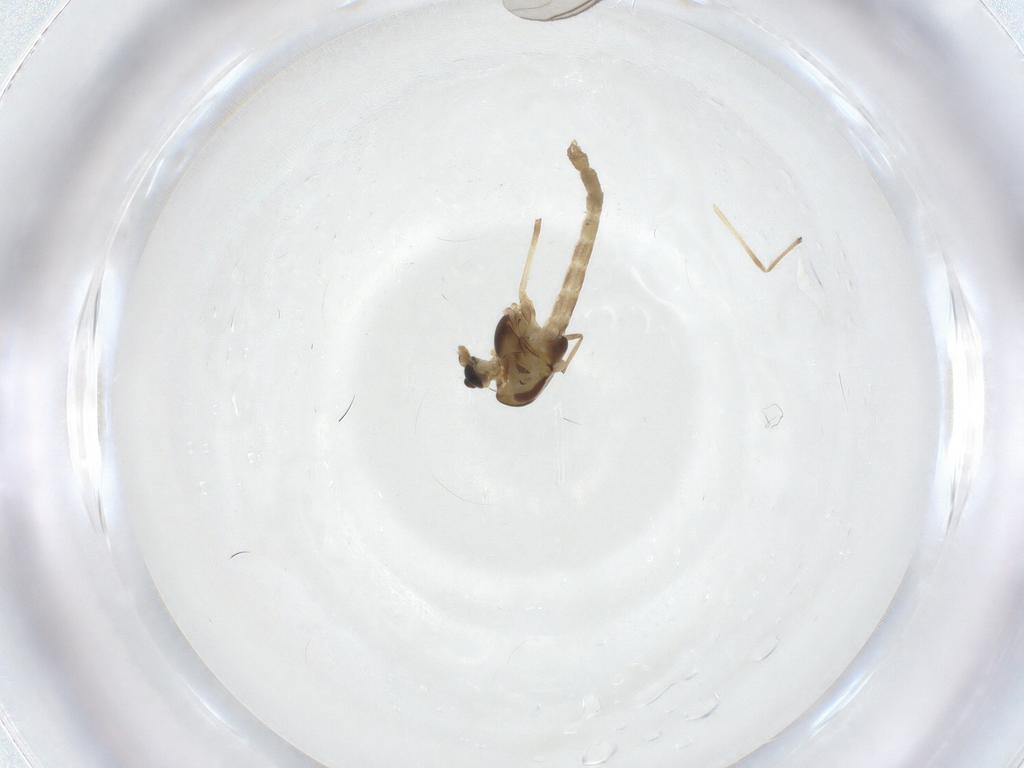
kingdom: Animalia
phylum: Arthropoda
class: Insecta
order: Diptera
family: Chironomidae
